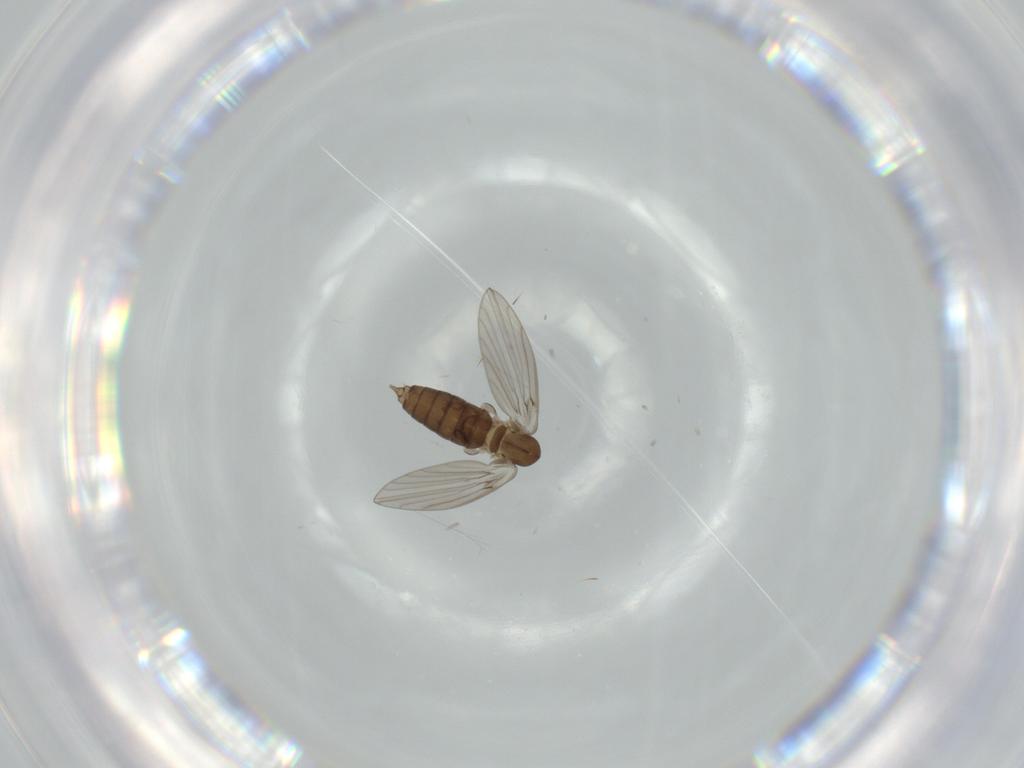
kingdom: Animalia
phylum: Arthropoda
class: Insecta
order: Diptera
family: Psychodidae
